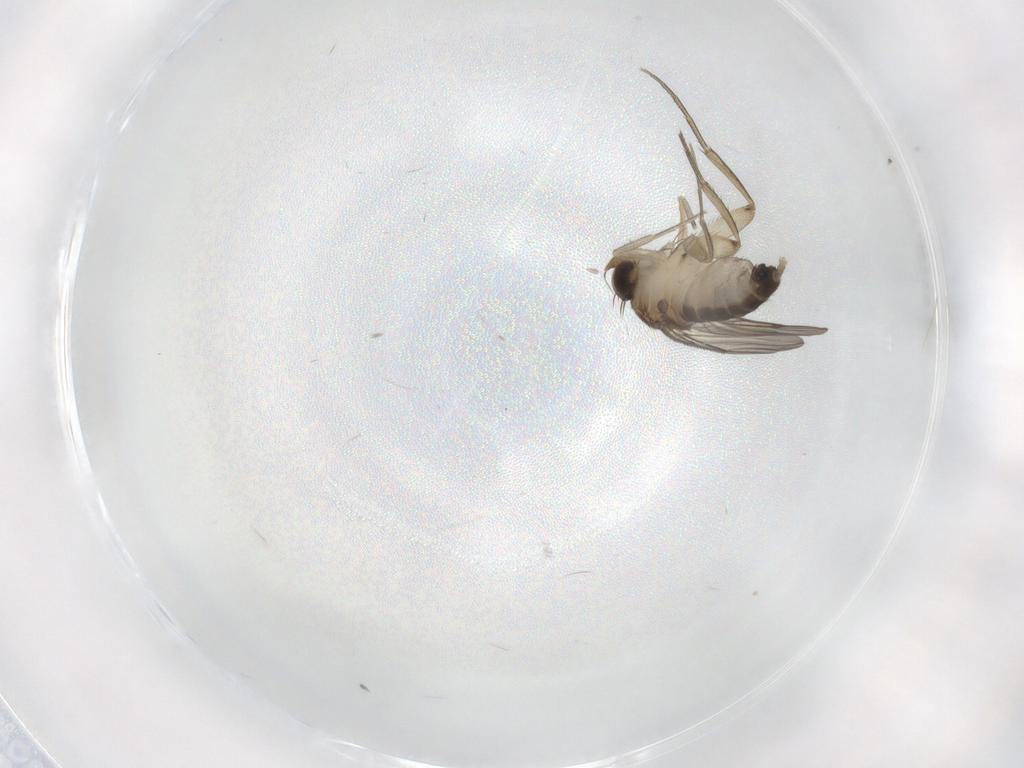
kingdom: Animalia
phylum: Arthropoda
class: Insecta
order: Diptera
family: Cecidomyiidae
